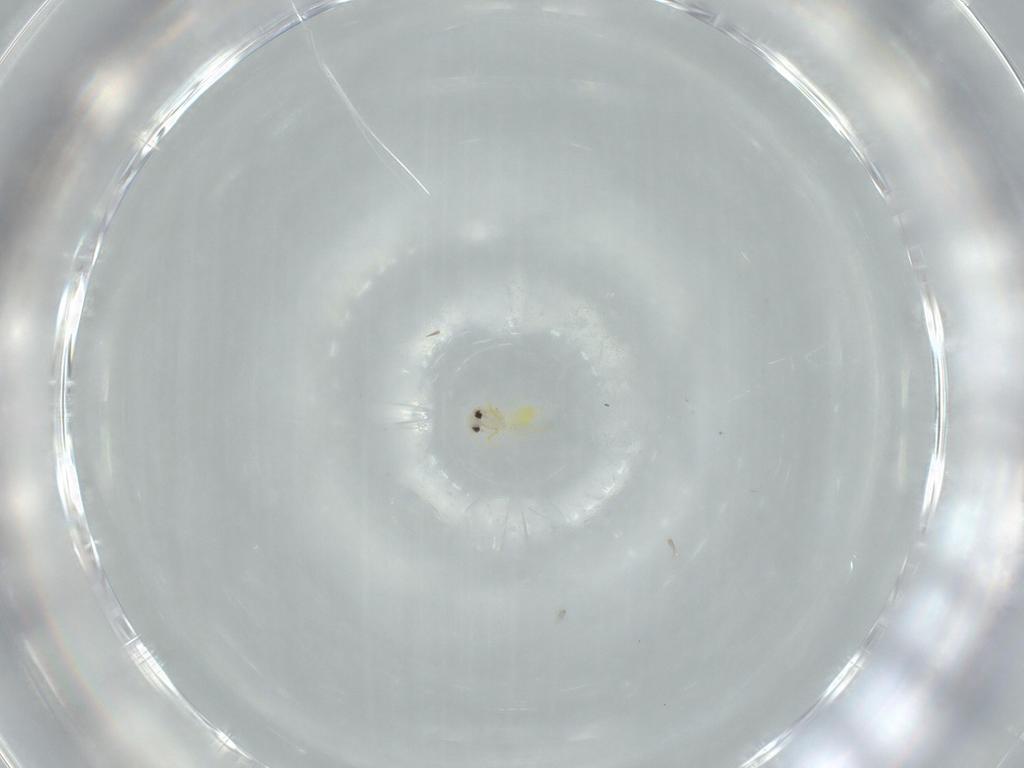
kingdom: Animalia
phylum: Arthropoda
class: Insecta
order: Hemiptera
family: Aleyrodidae
